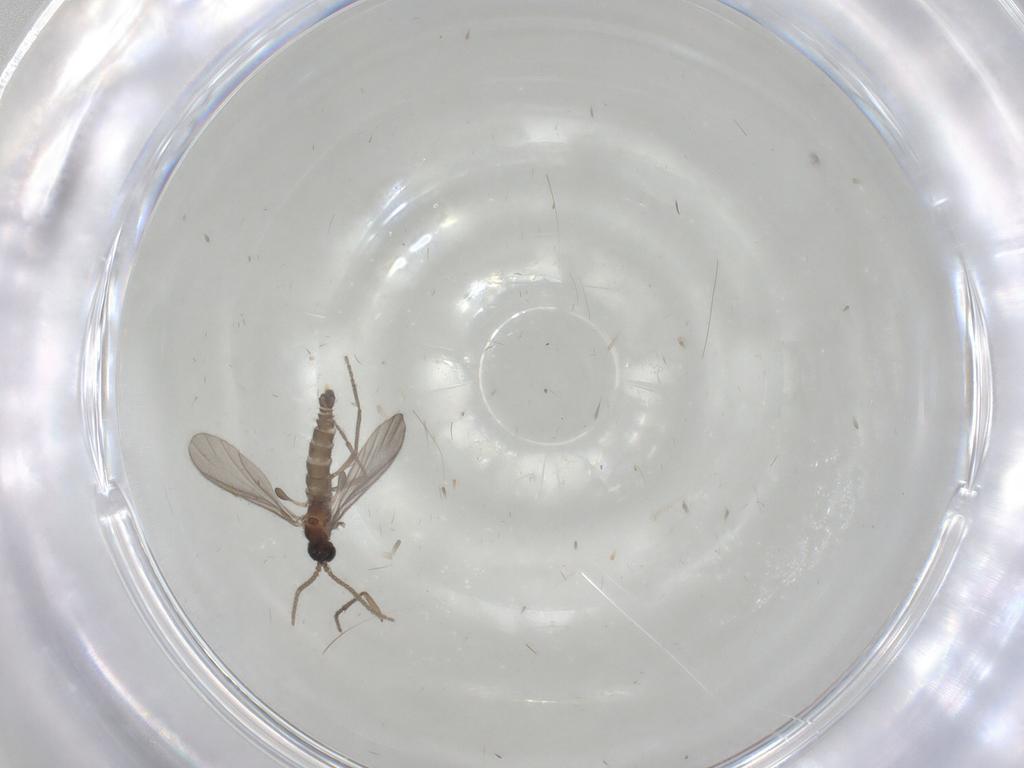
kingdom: Animalia
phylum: Arthropoda
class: Insecta
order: Diptera
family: Sciaridae
